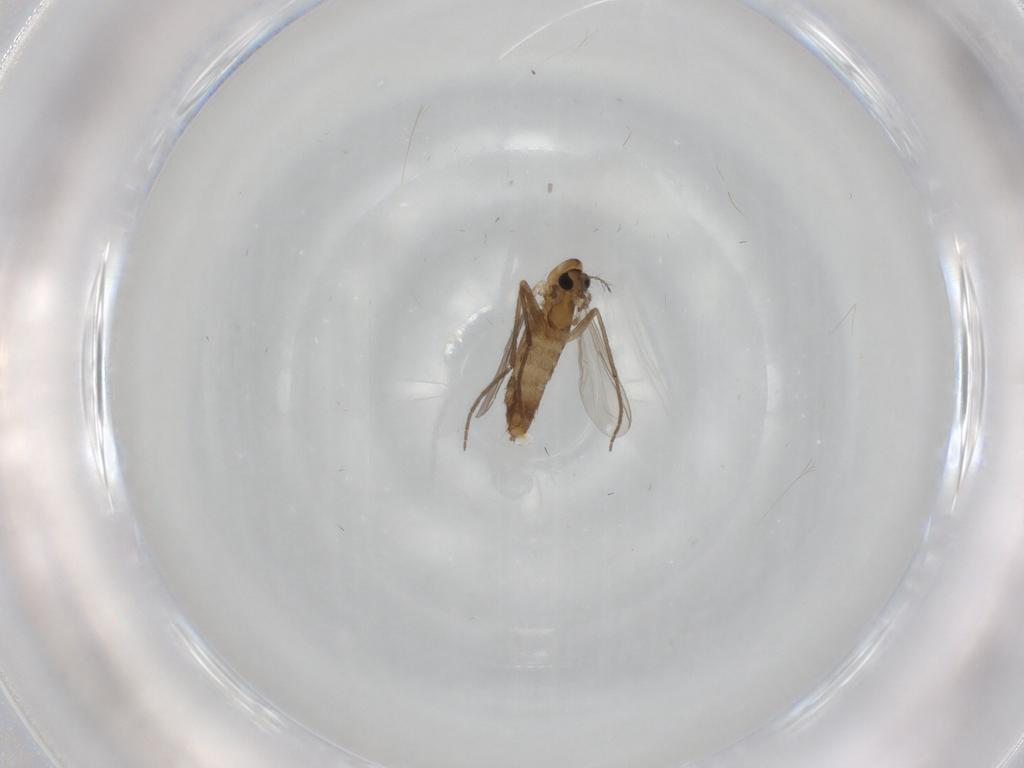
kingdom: Animalia
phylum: Arthropoda
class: Insecta
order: Diptera
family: Chironomidae
